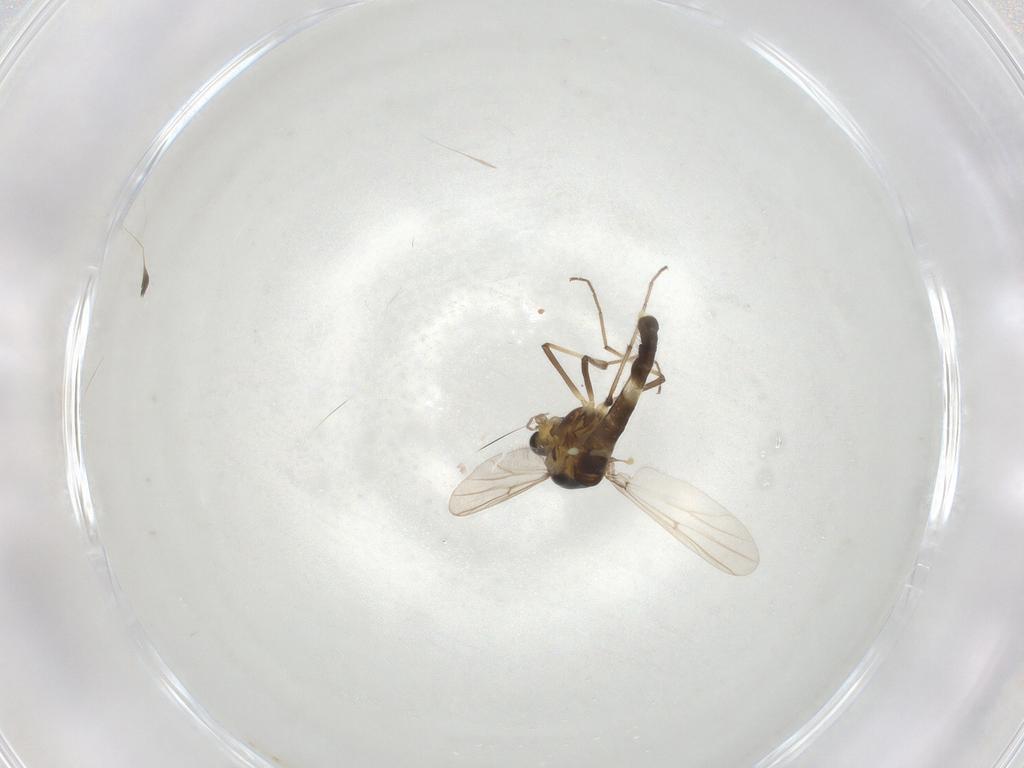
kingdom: Animalia
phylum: Arthropoda
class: Insecta
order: Diptera
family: Chironomidae
